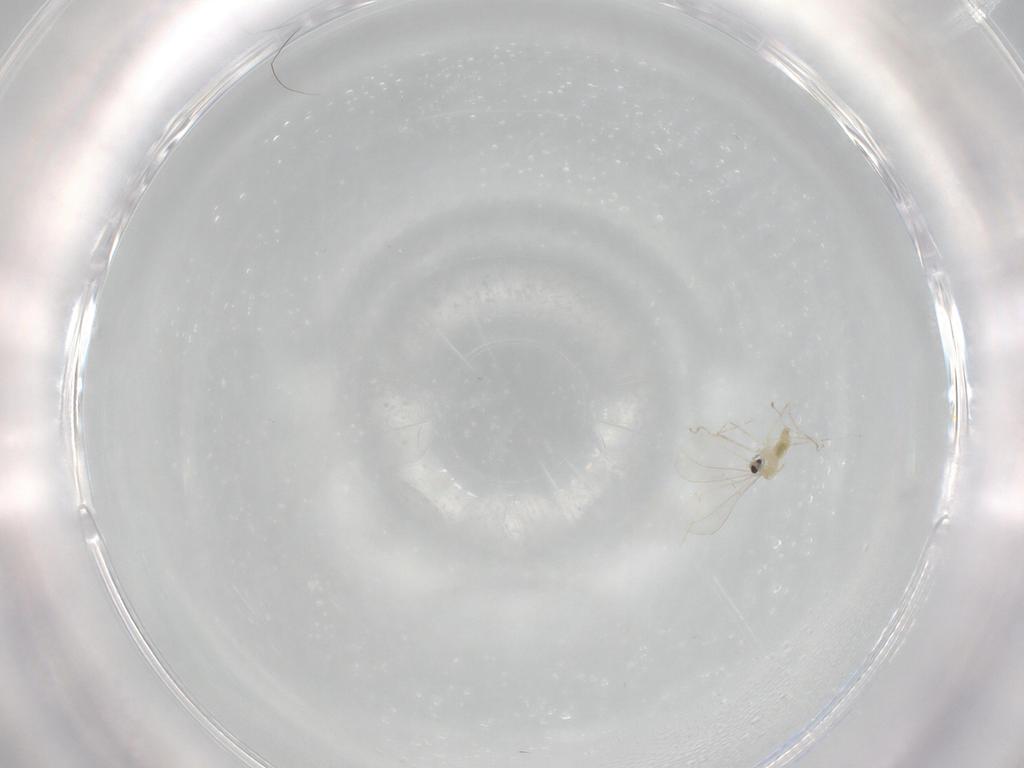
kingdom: Animalia
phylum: Arthropoda
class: Insecta
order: Diptera
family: Cecidomyiidae
